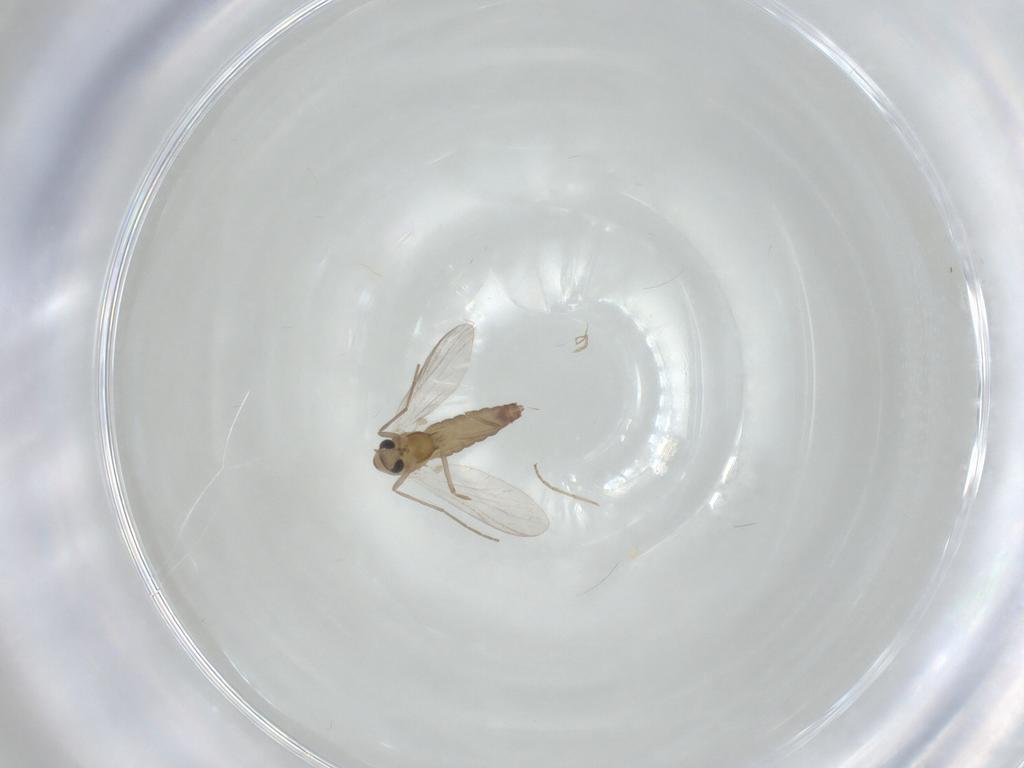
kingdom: Animalia
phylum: Arthropoda
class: Insecta
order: Diptera
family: Chironomidae
